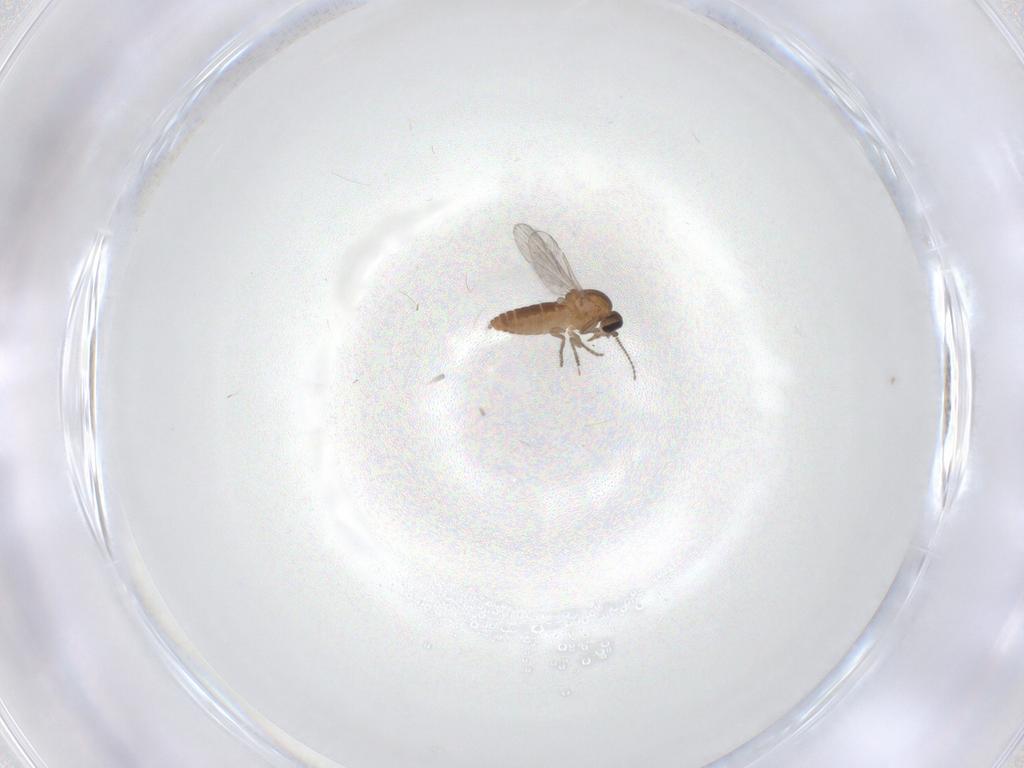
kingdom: Animalia
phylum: Arthropoda
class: Insecta
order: Diptera
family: Ceratopogonidae
